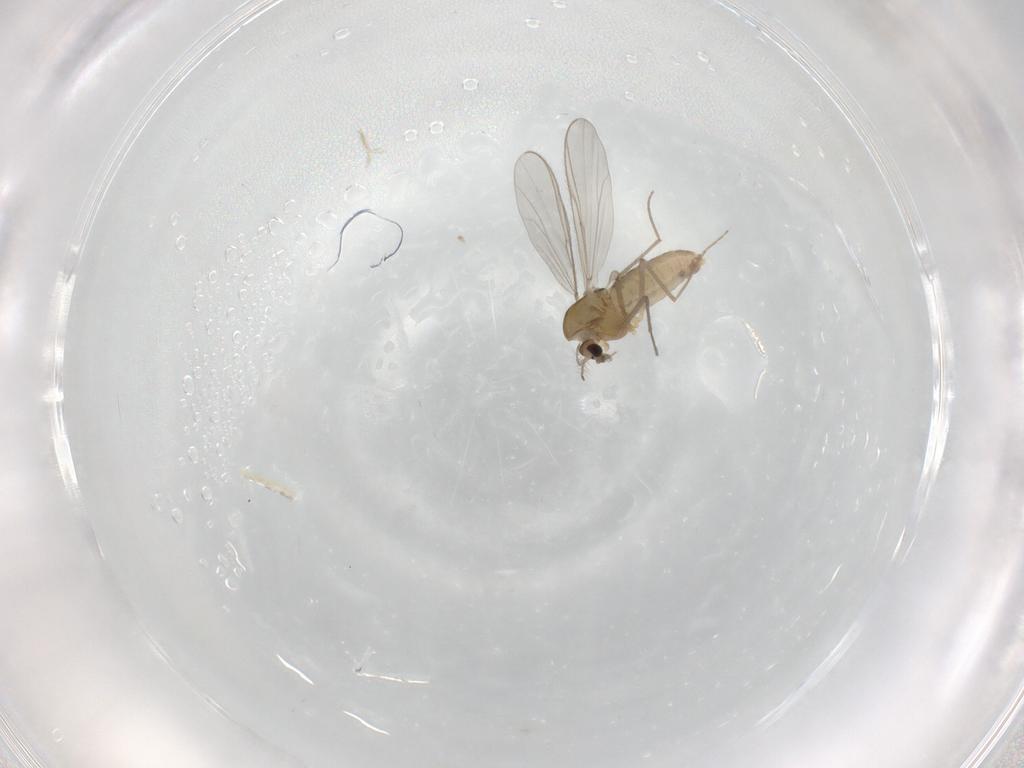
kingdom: Animalia
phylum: Arthropoda
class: Insecta
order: Diptera
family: Chironomidae
